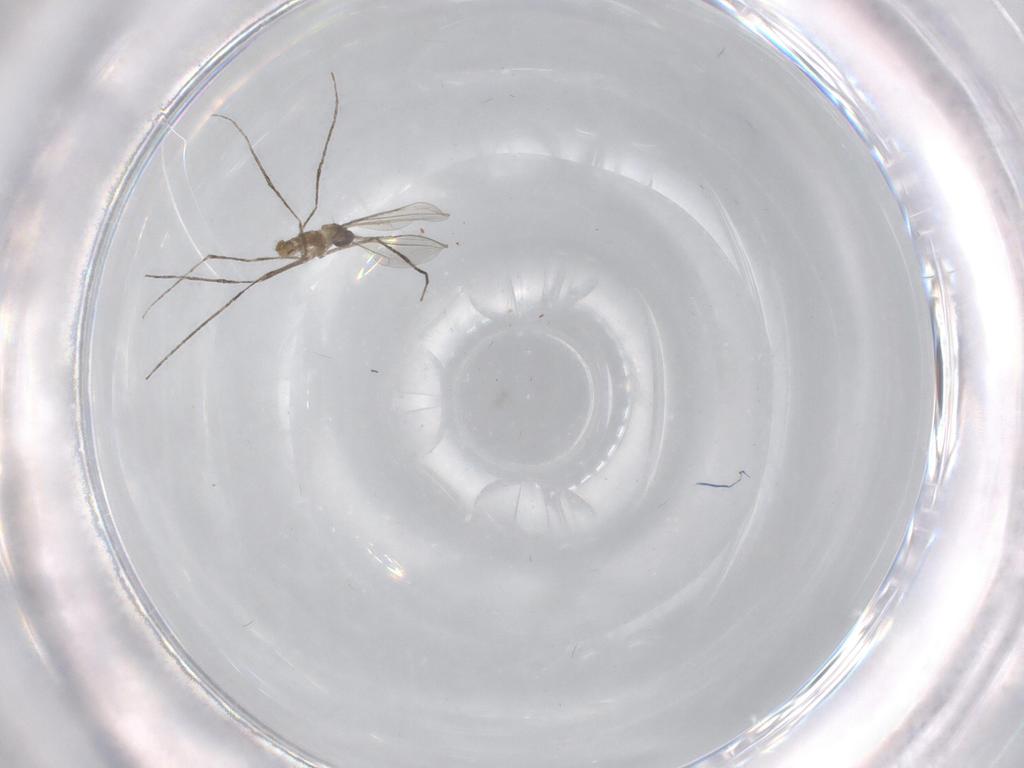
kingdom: Animalia
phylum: Arthropoda
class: Insecta
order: Diptera
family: Cecidomyiidae
